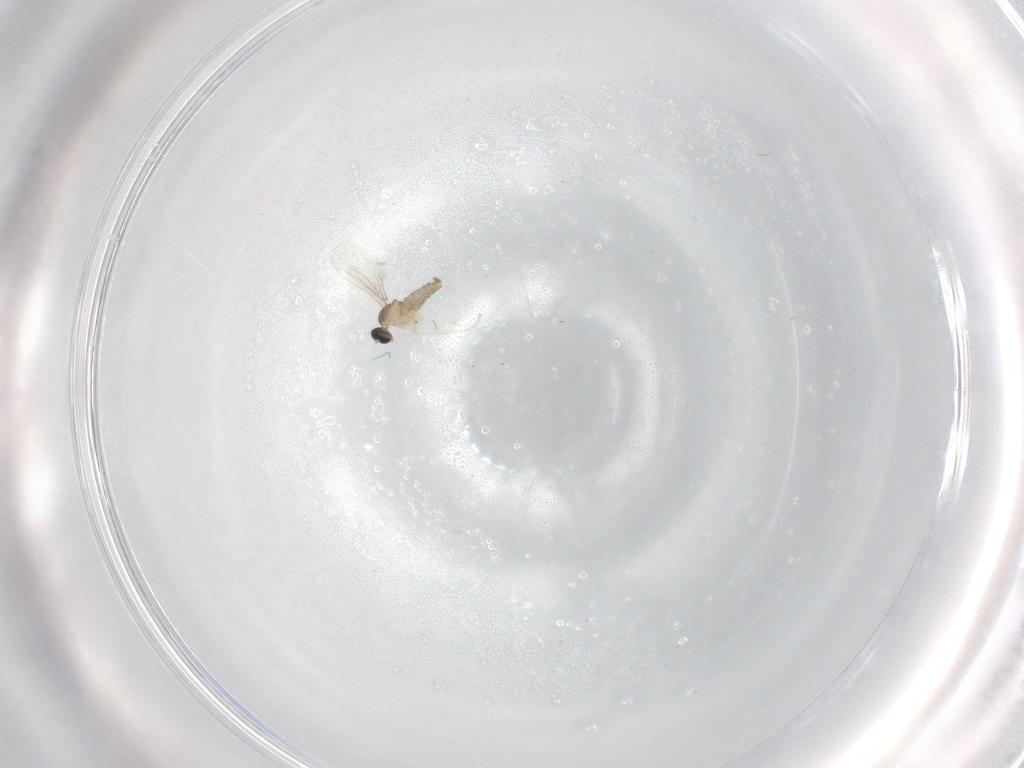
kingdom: Animalia
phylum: Arthropoda
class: Insecta
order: Diptera
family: Cecidomyiidae
